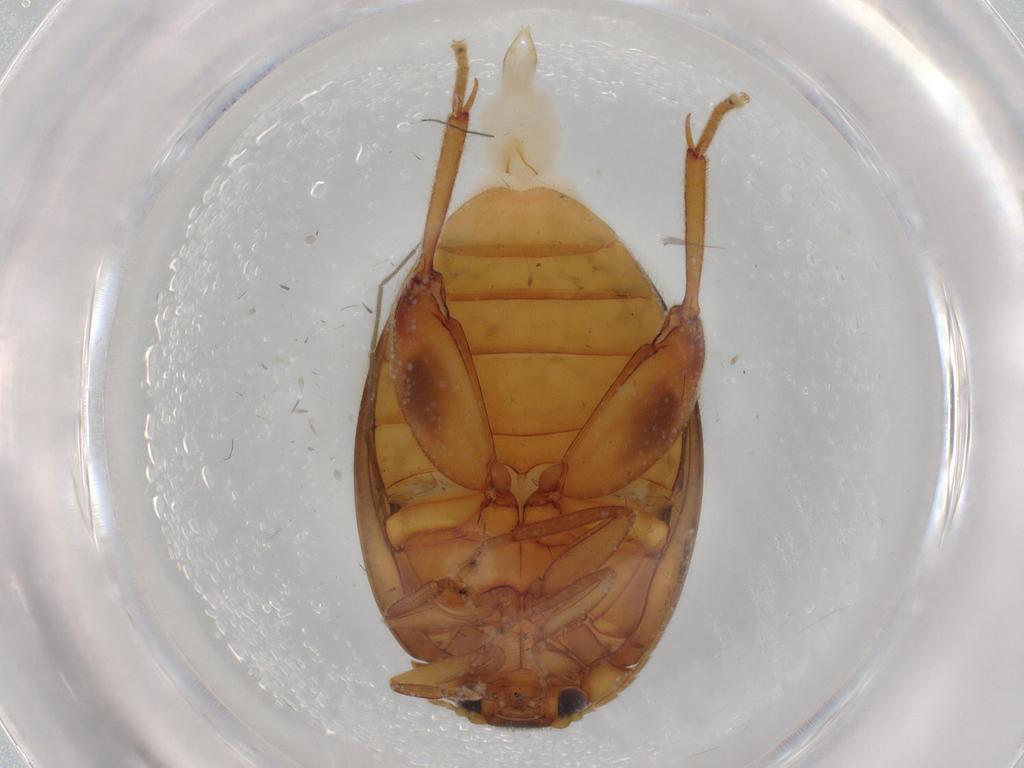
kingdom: Animalia
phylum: Arthropoda
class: Insecta
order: Coleoptera
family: Scirtidae
